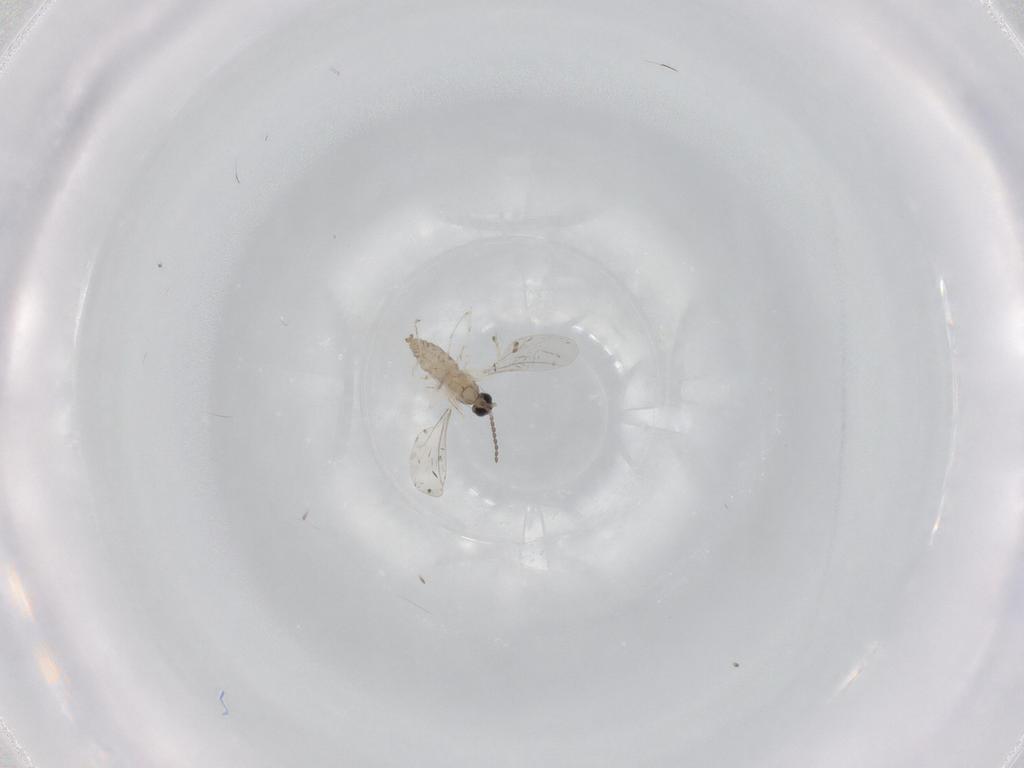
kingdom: Animalia
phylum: Arthropoda
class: Insecta
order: Diptera
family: Cecidomyiidae
